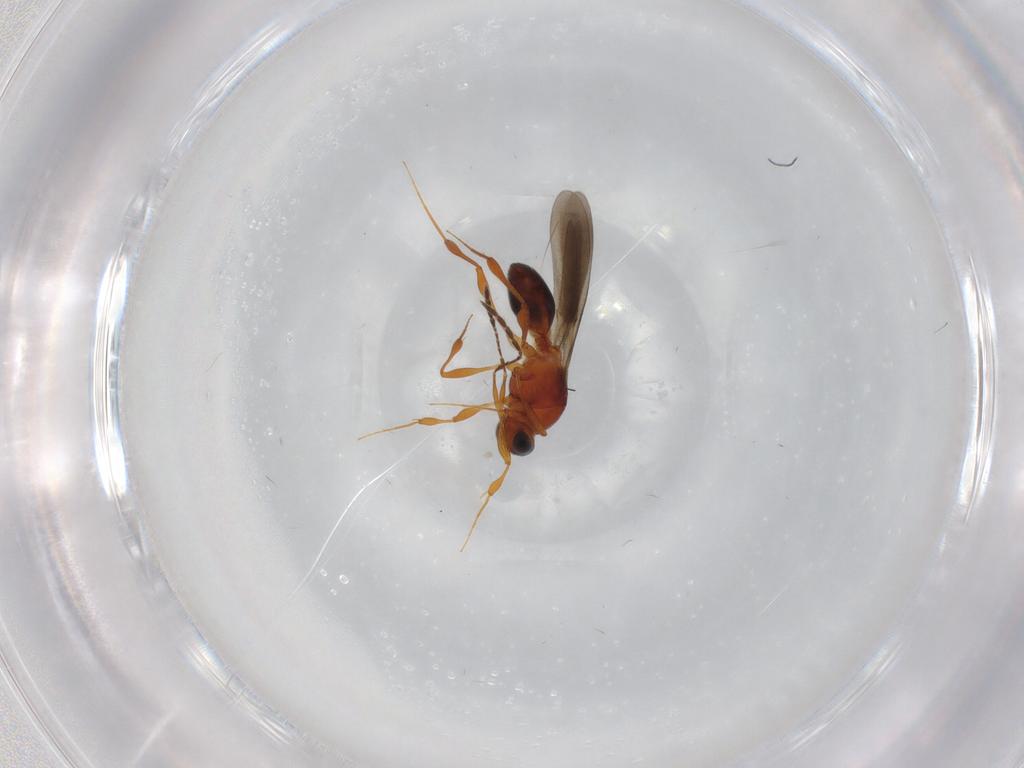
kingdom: Animalia
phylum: Arthropoda
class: Insecta
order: Hymenoptera
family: Platygastridae
